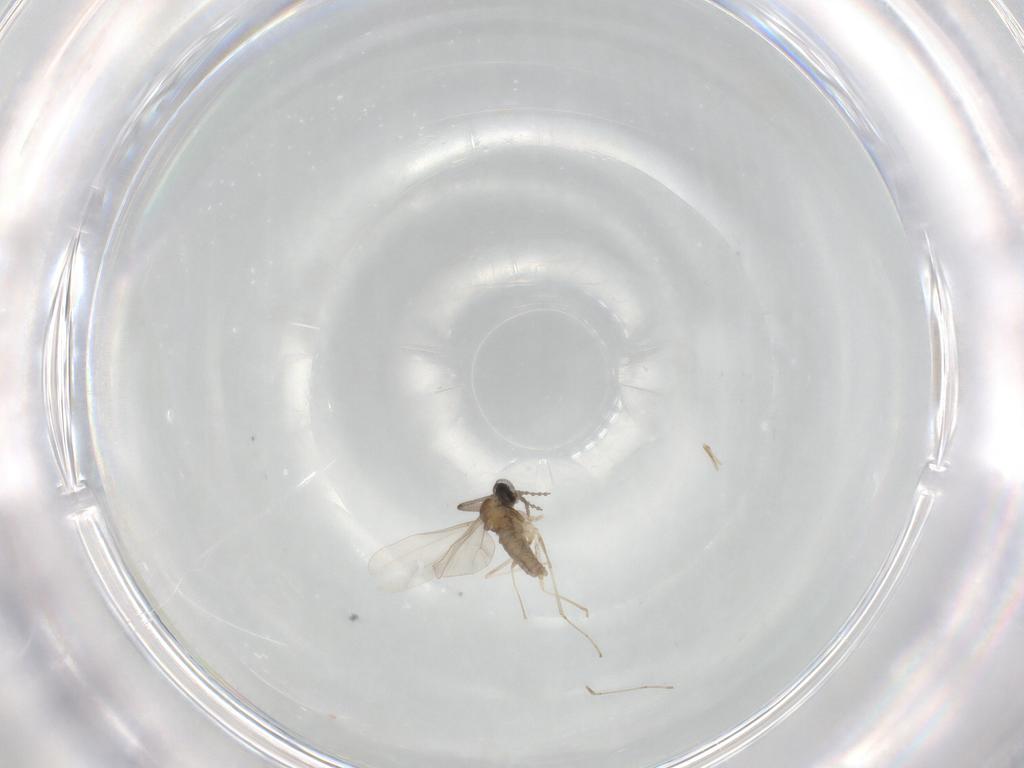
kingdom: Animalia
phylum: Arthropoda
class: Insecta
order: Diptera
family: Cecidomyiidae
